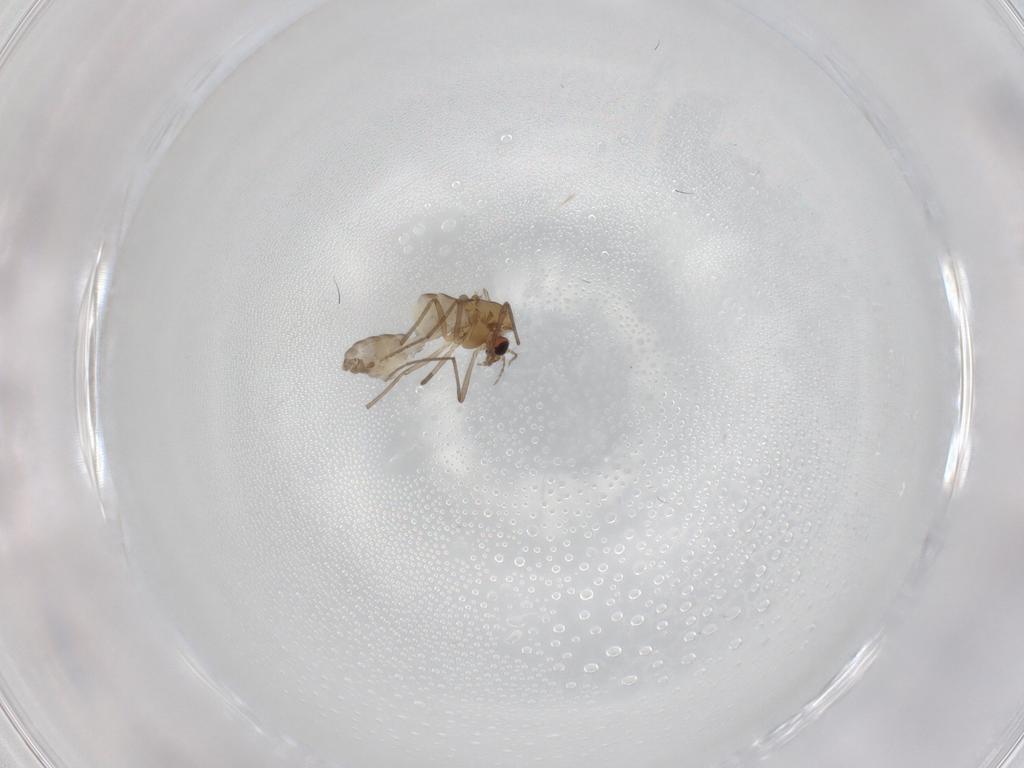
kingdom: Animalia
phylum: Arthropoda
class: Insecta
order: Diptera
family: Chironomidae
